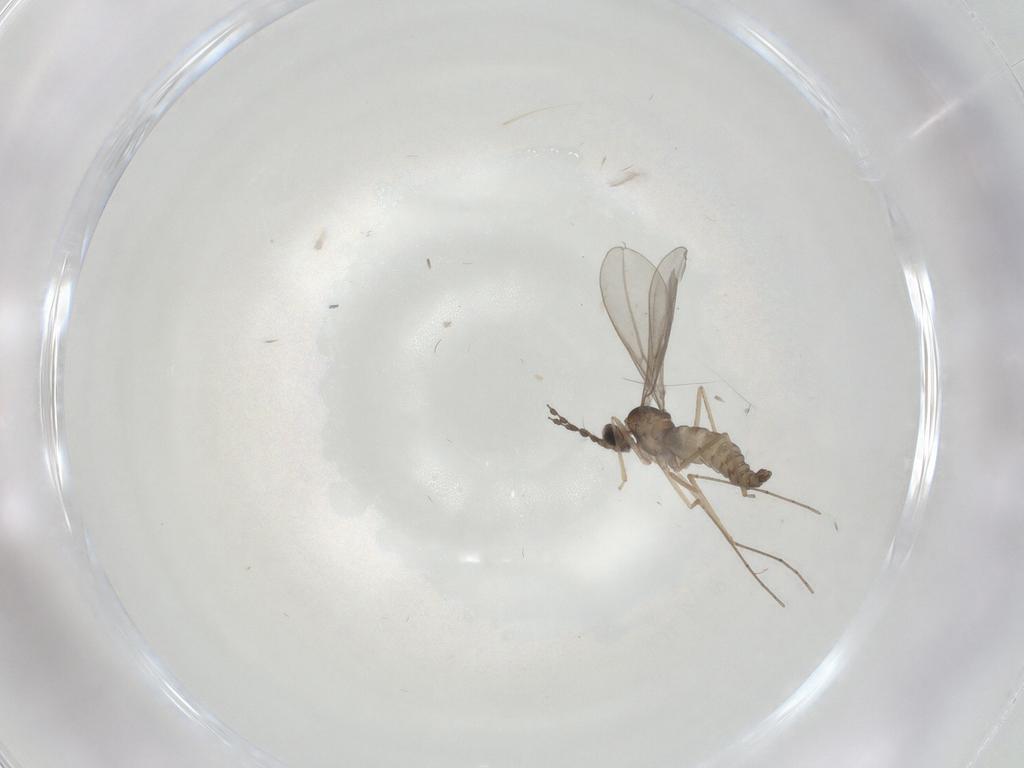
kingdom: Animalia
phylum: Arthropoda
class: Insecta
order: Diptera
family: Cecidomyiidae
